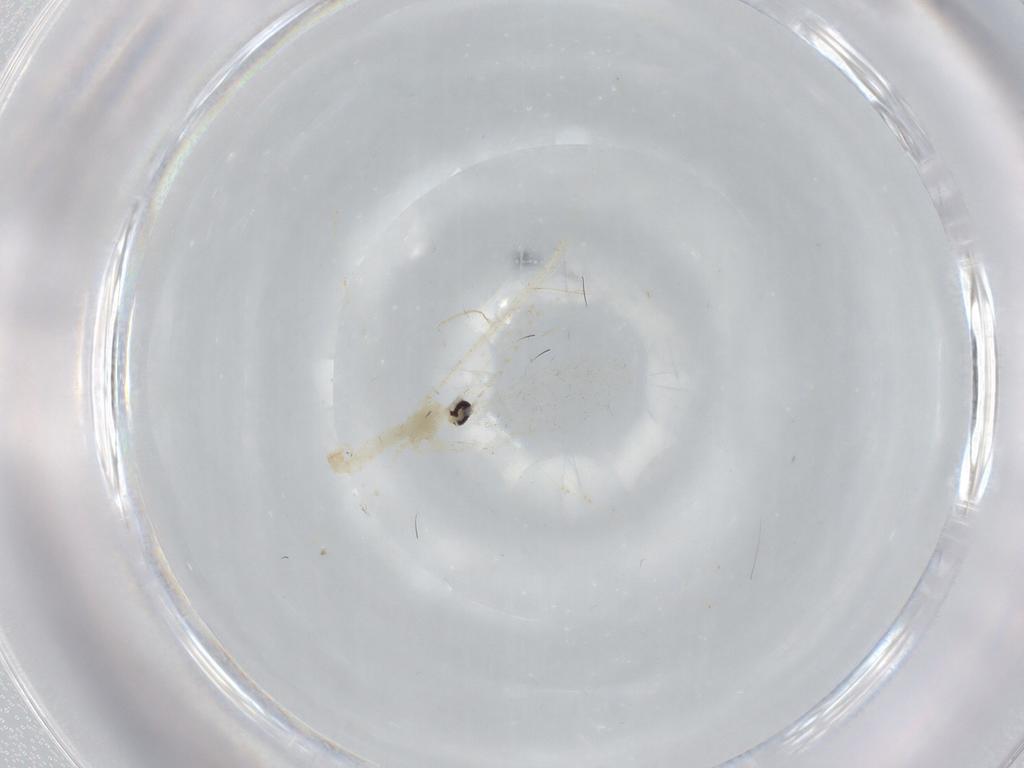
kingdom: Animalia
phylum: Arthropoda
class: Insecta
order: Diptera
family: Cecidomyiidae
